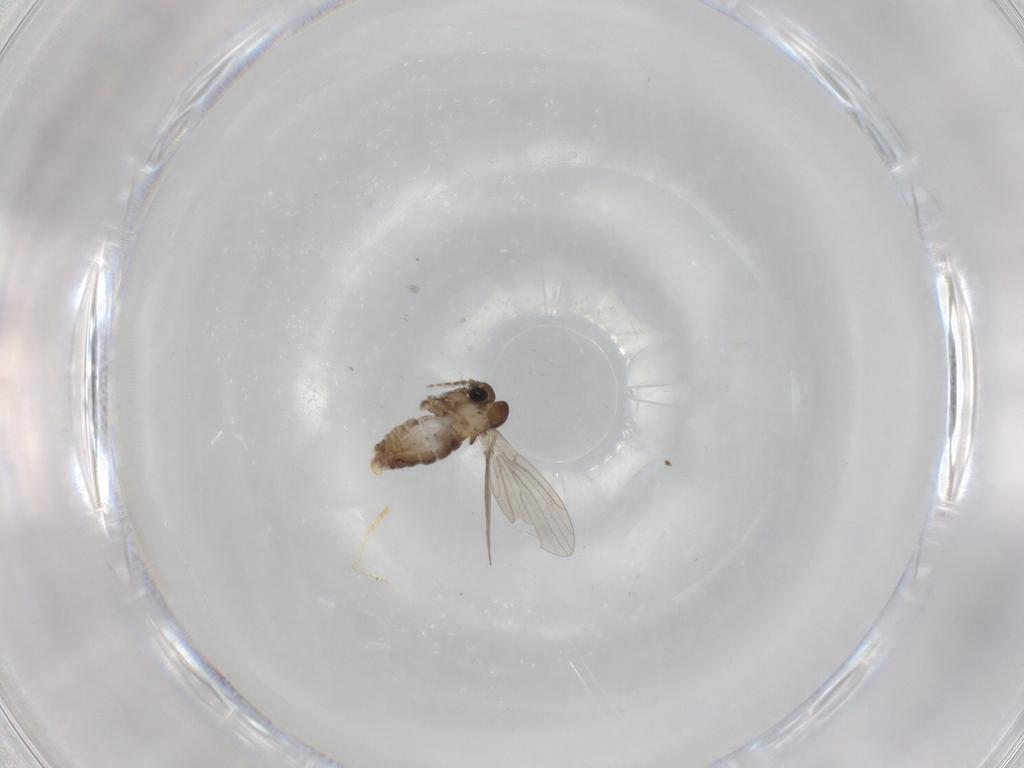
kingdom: Animalia
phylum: Arthropoda
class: Insecta
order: Diptera
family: Psychodidae
